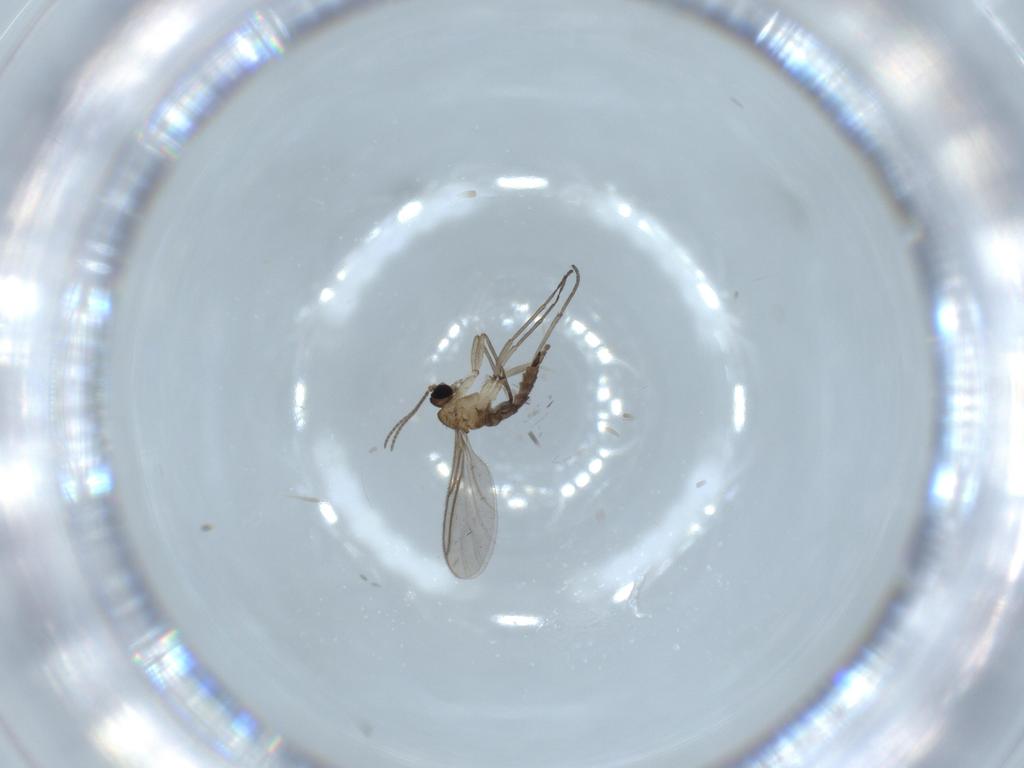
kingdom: Animalia
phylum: Arthropoda
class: Insecta
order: Diptera
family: Sciaridae
